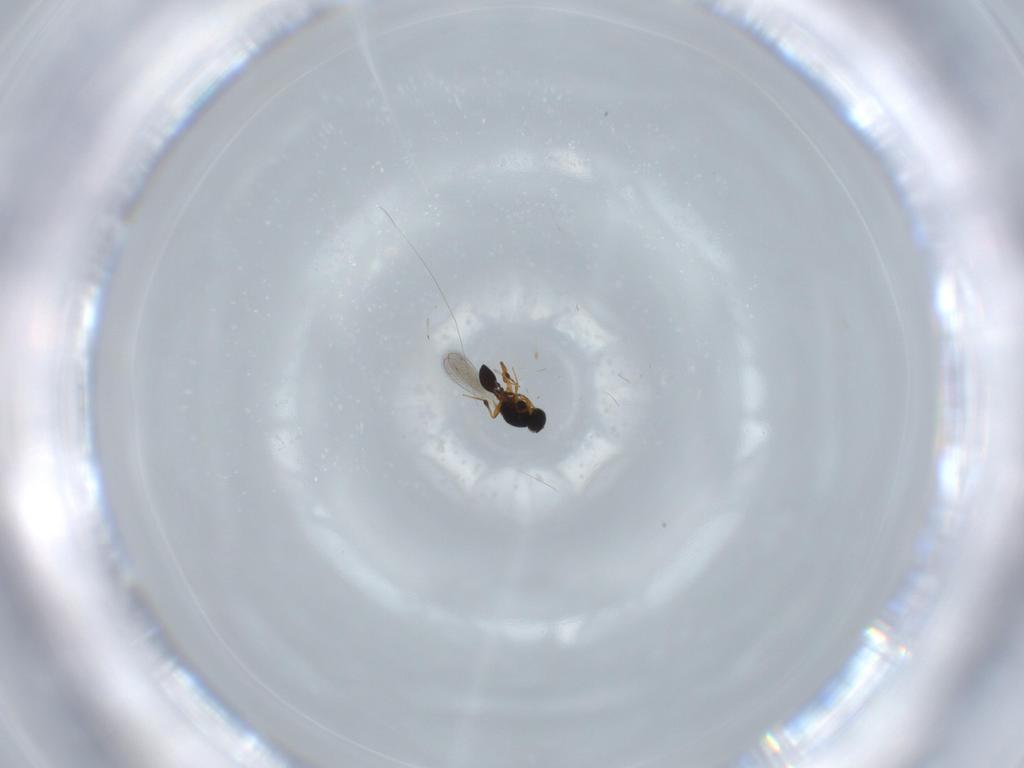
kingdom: Animalia
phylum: Arthropoda
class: Insecta
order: Hymenoptera
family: Platygastridae
